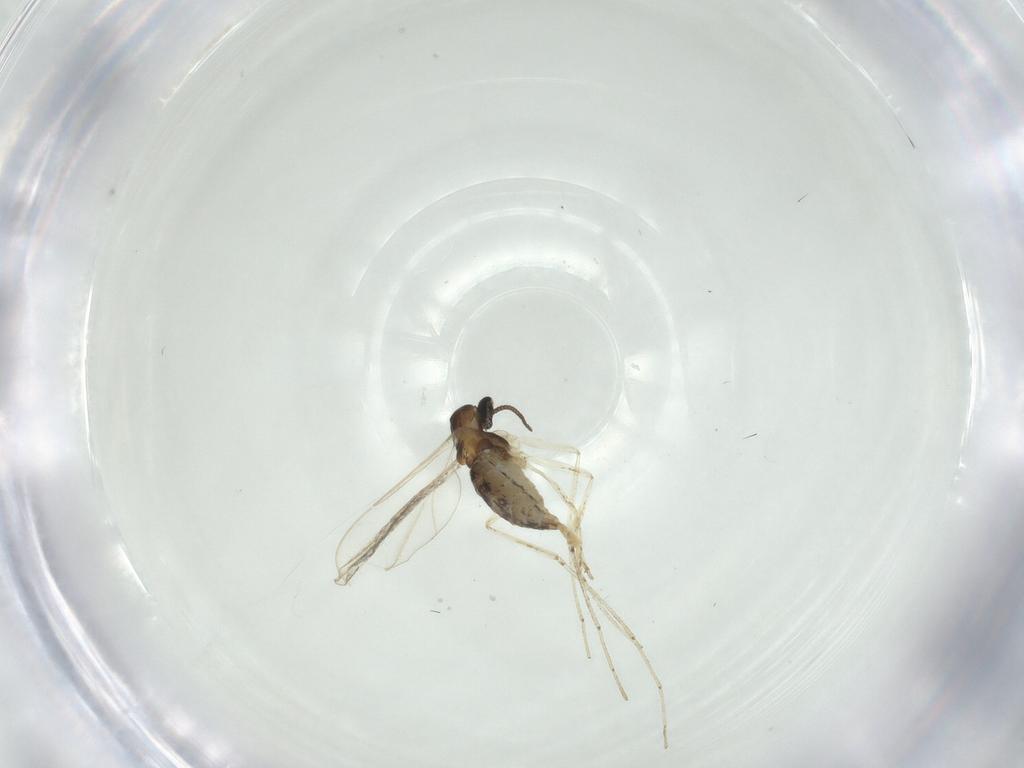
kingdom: Animalia
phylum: Arthropoda
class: Insecta
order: Diptera
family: Cecidomyiidae
